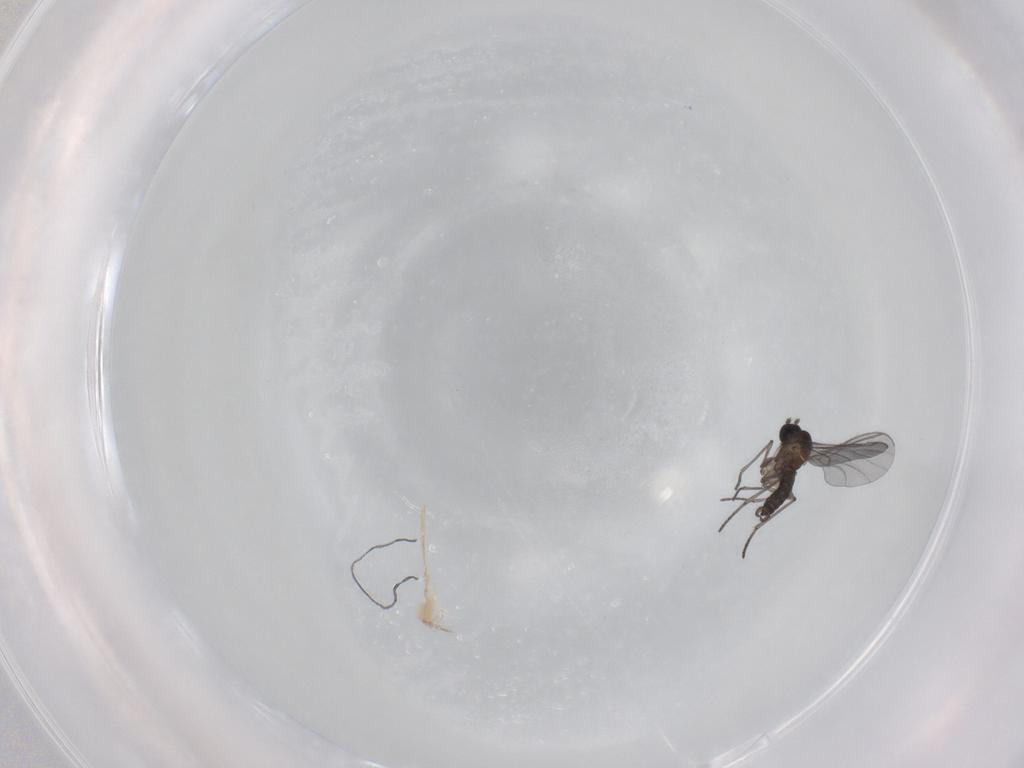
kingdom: Animalia
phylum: Arthropoda
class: Insecta
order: Diptera
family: Sciaridae
